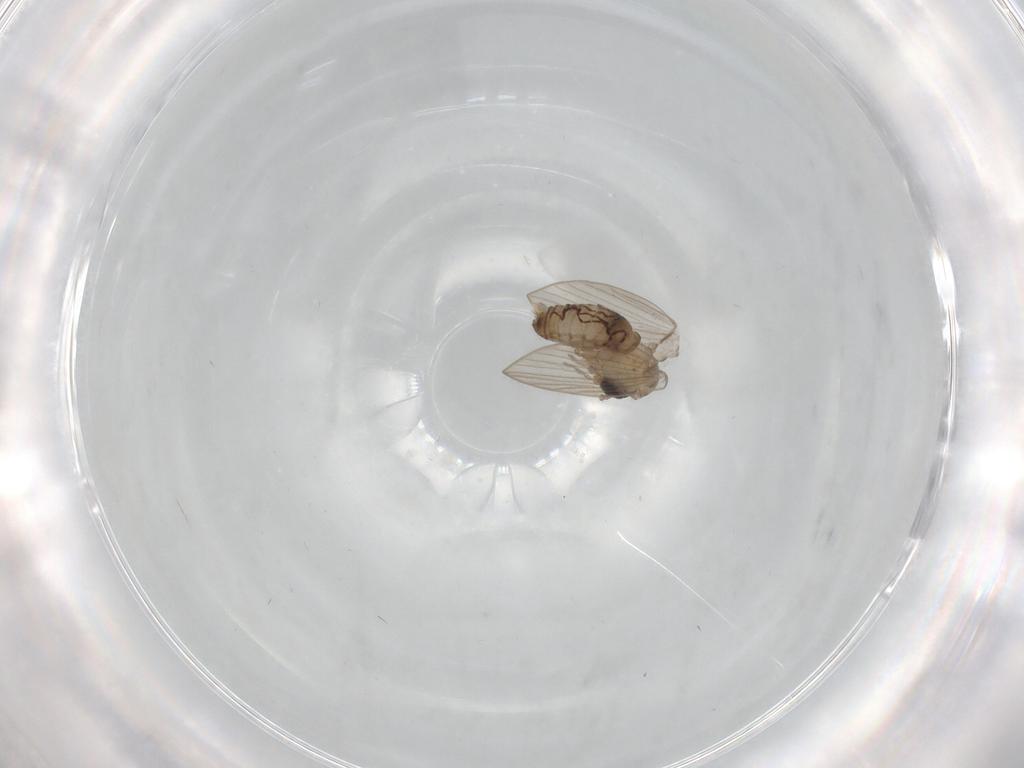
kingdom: Animalia
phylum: Arthropoda
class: Insecta
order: Diptera
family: Psychodidae
